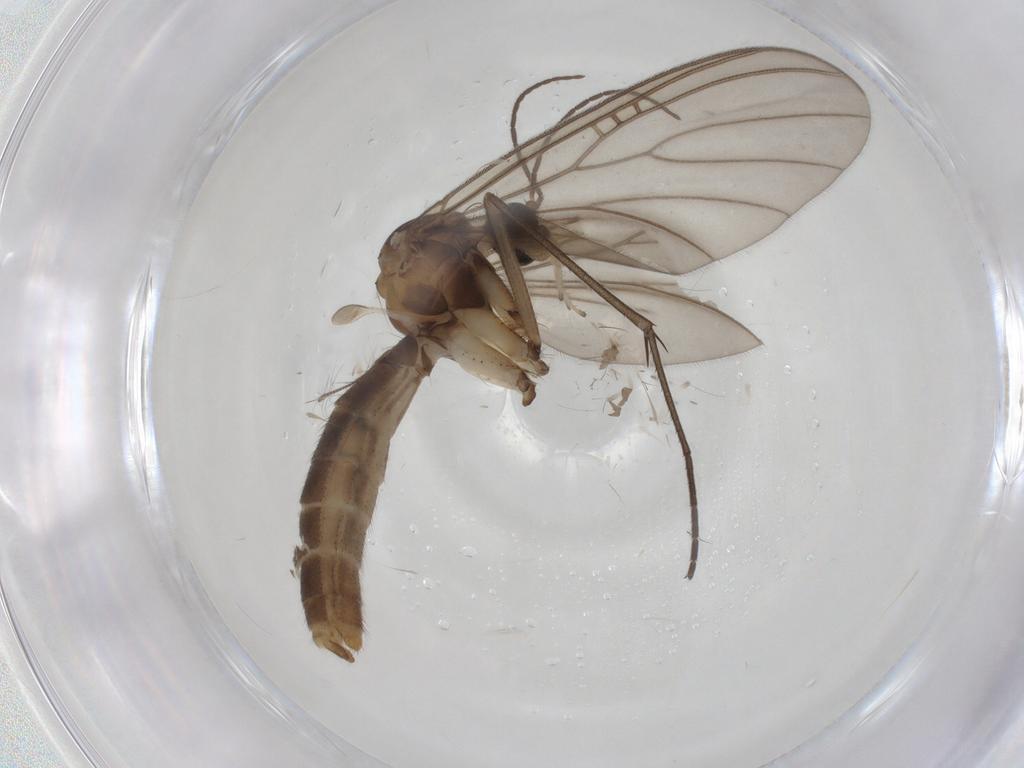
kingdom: Animalia
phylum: Arthropoda
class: Insecta
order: Diptera
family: Mycetophilidae
